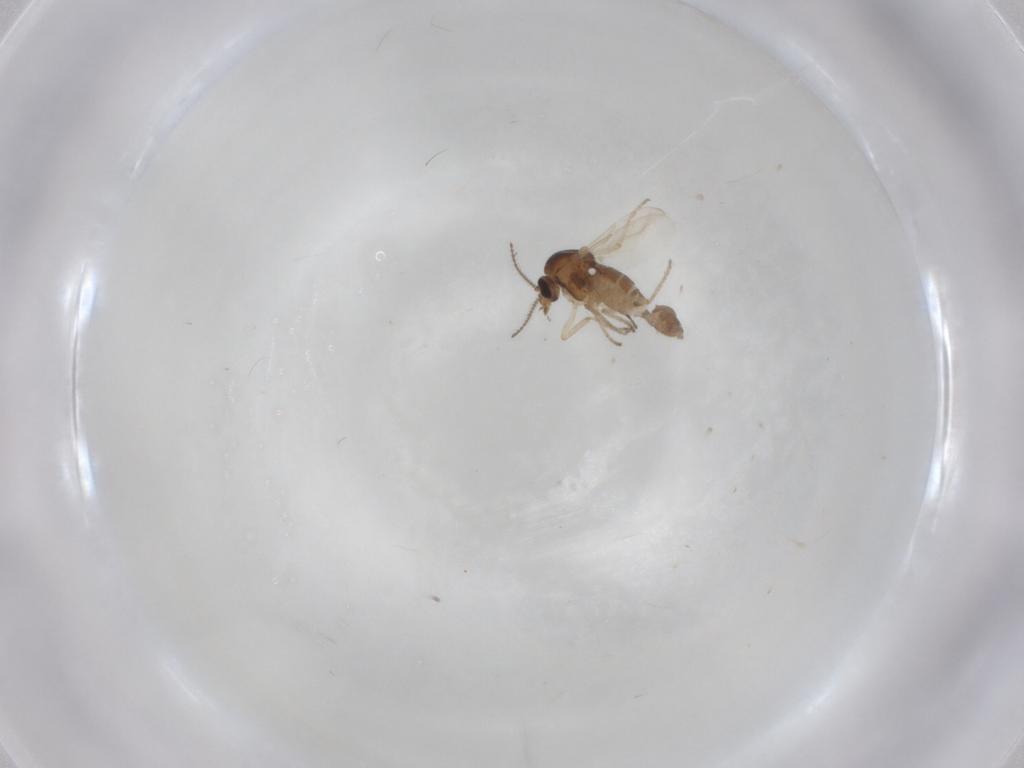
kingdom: Animalia
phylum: Arthropoda
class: Insecta
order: Diptera
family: Ceratopogonidae
